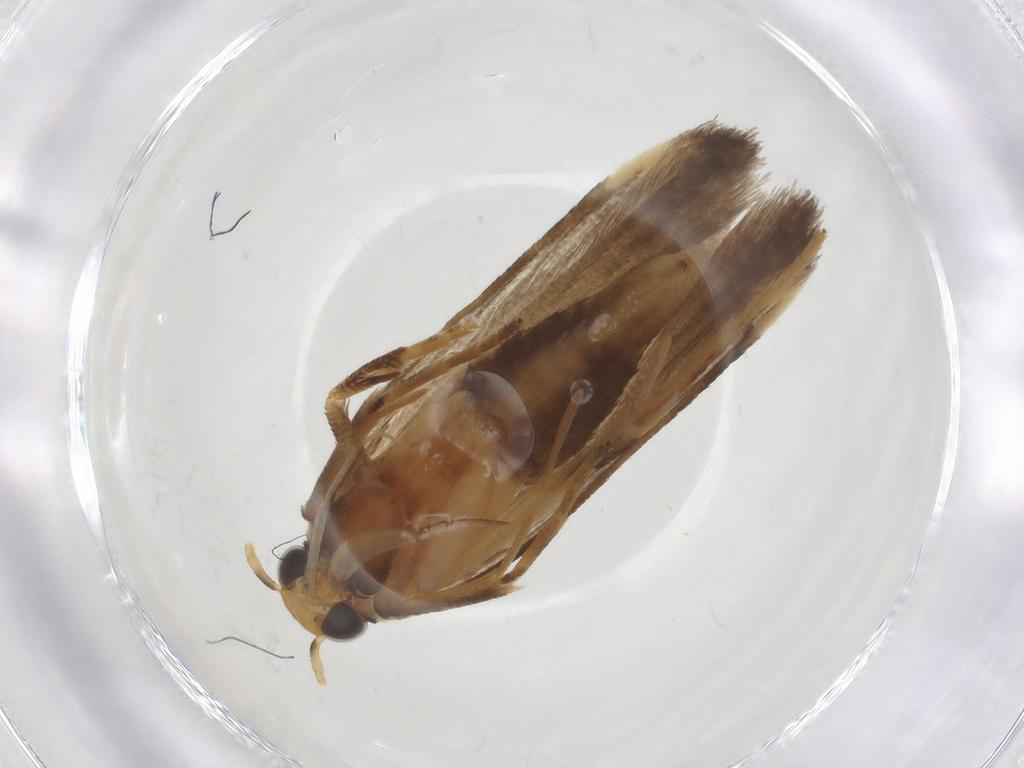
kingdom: Animalia
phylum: Arthropoda
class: Insecta
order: Lepidoptera
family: Gelechiidae
